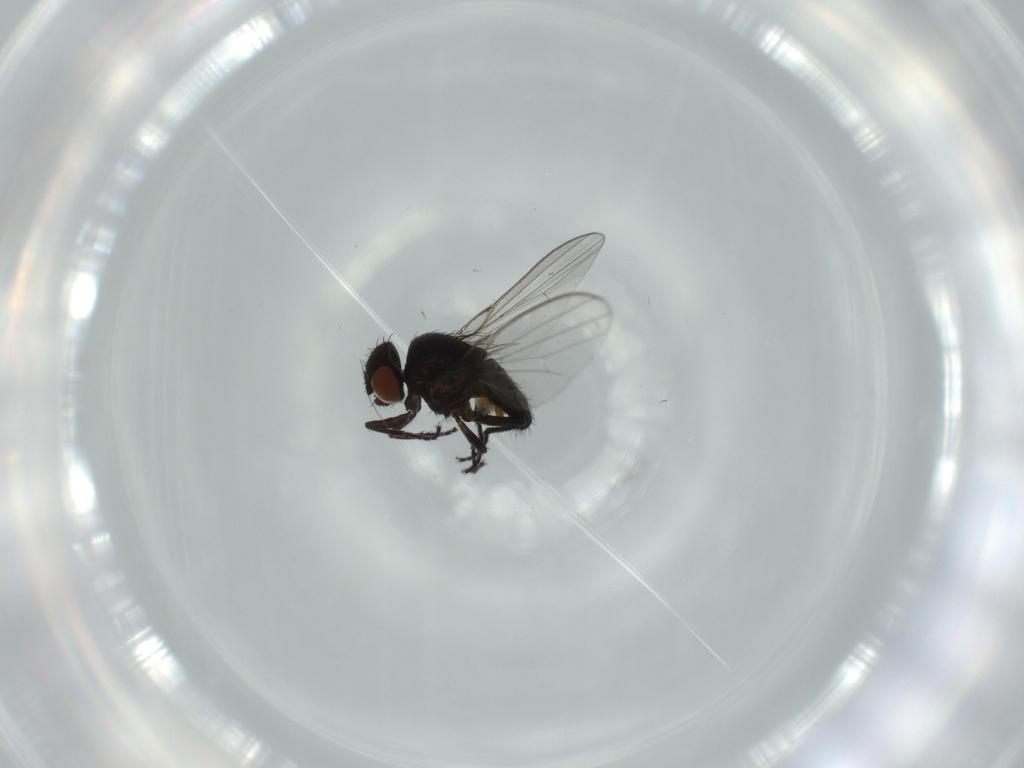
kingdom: Animalia
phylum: Arthropoda
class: Insecta
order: Diptera
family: Milichiidae
